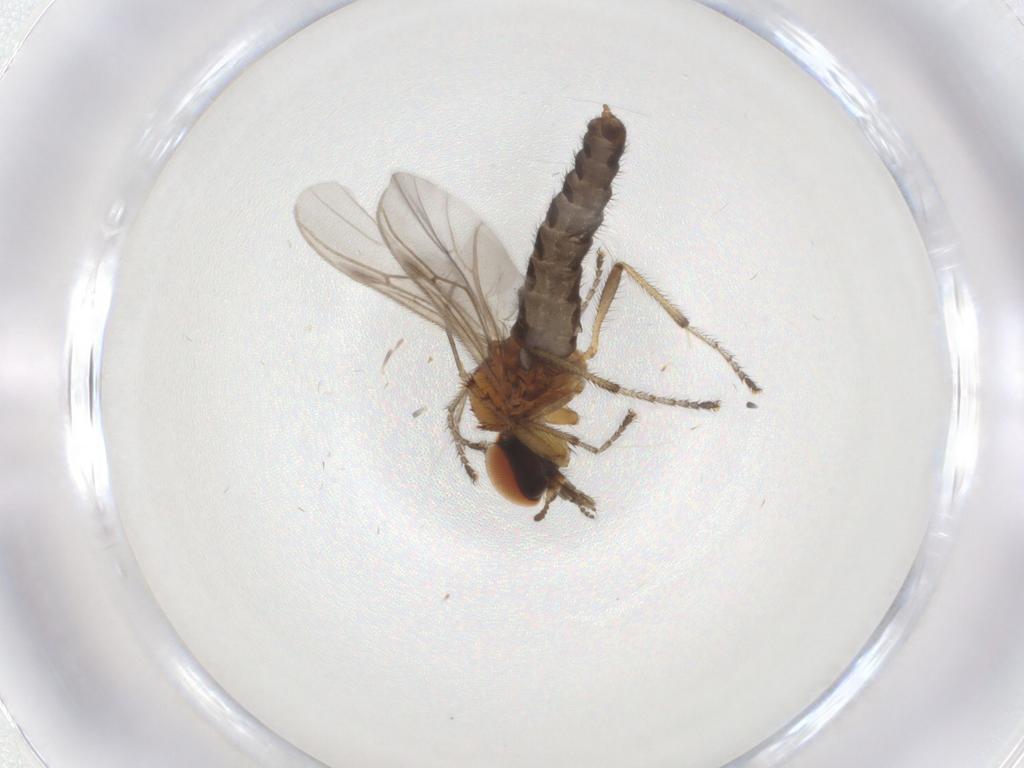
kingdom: Animalia
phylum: Arthropoda
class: Insecta
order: Diptera
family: Bibionidae
